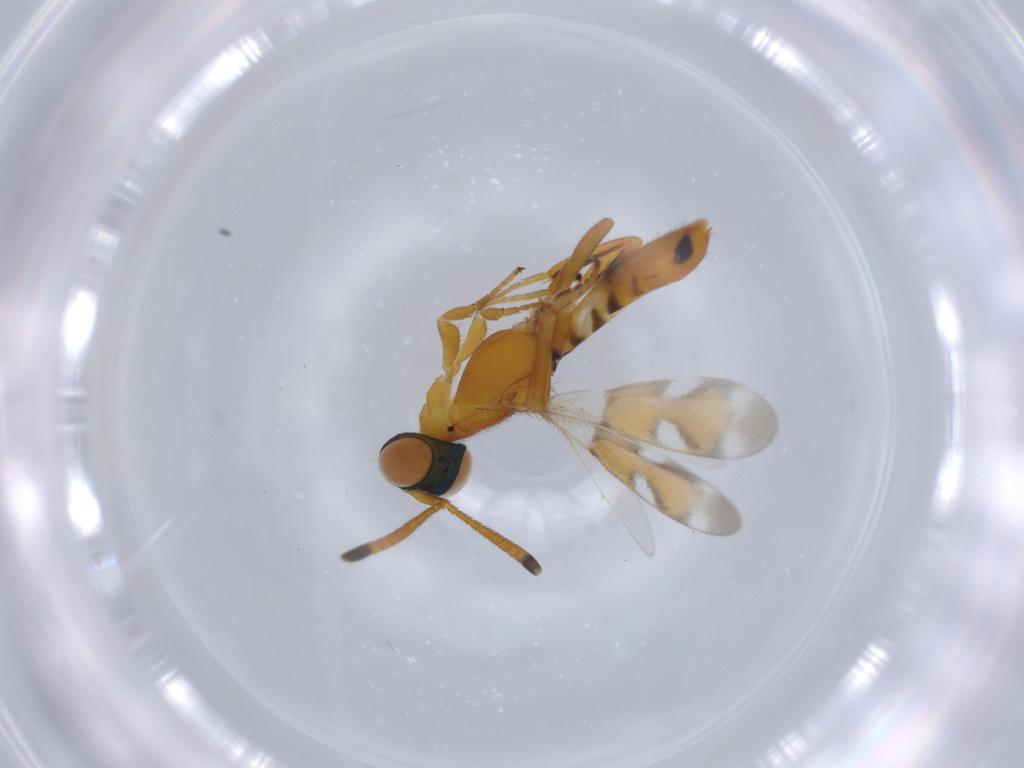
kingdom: Animalia
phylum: Arthropoda
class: Insecta
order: Hymenoptera
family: Eupelmidae
